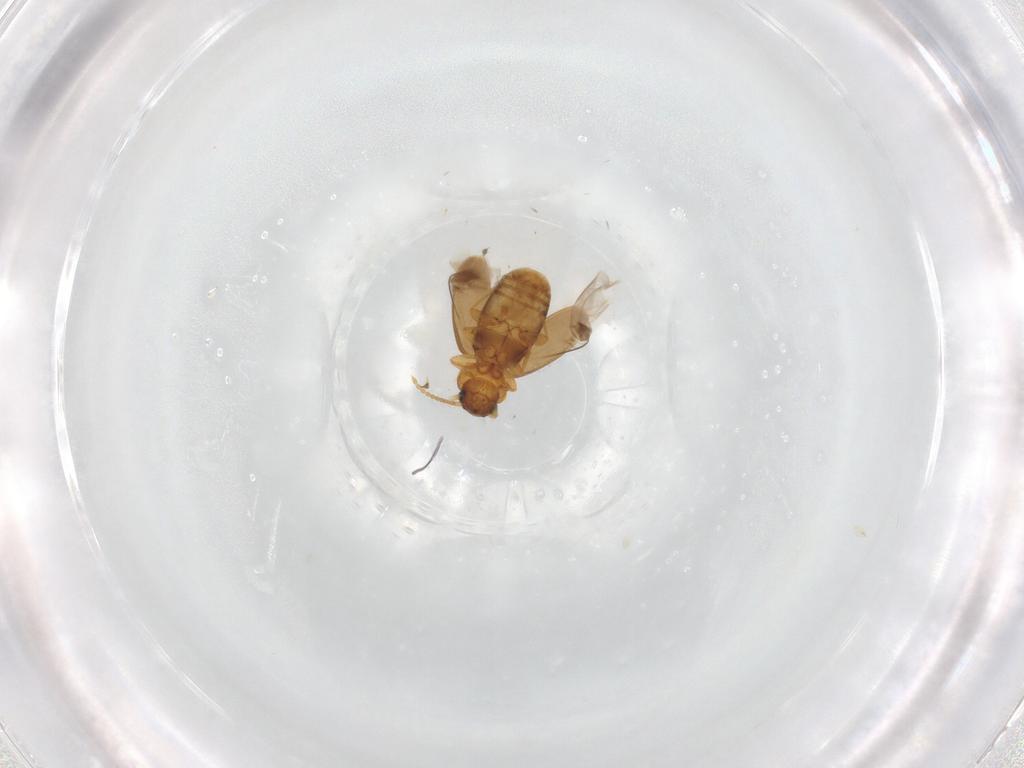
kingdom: Animalia
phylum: Arthropoda
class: Insecta
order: Coleoptera
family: Carabidae
